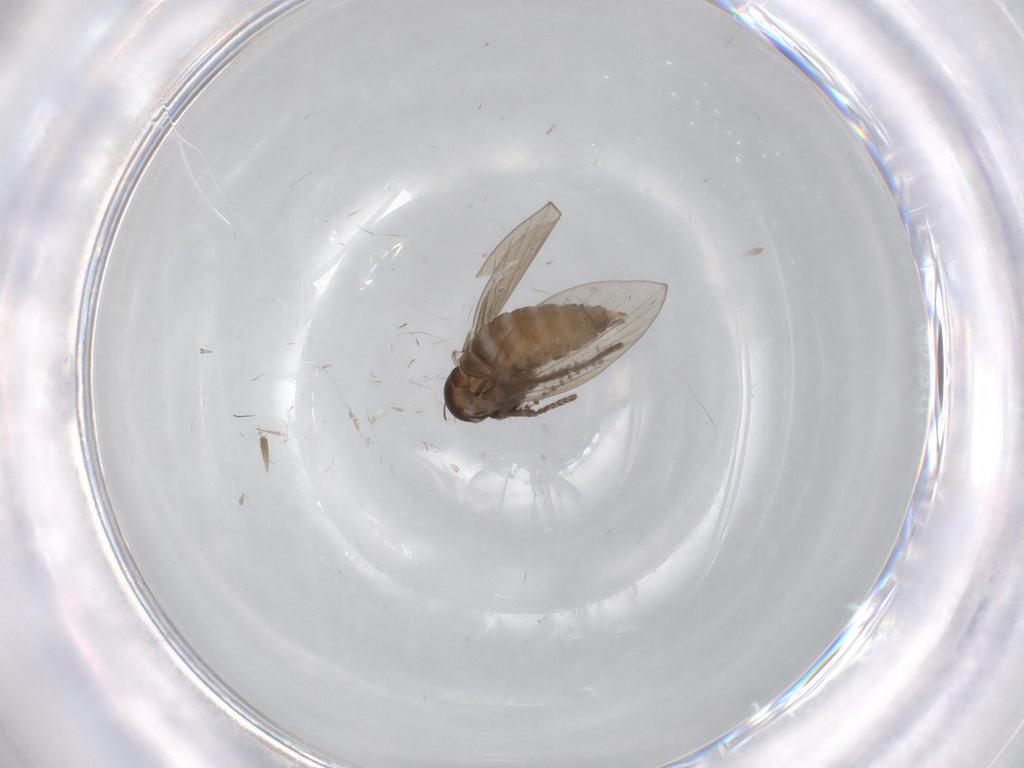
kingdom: Animalia
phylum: Arthropoda
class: Insecta
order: Diptera
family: Psychodidae
